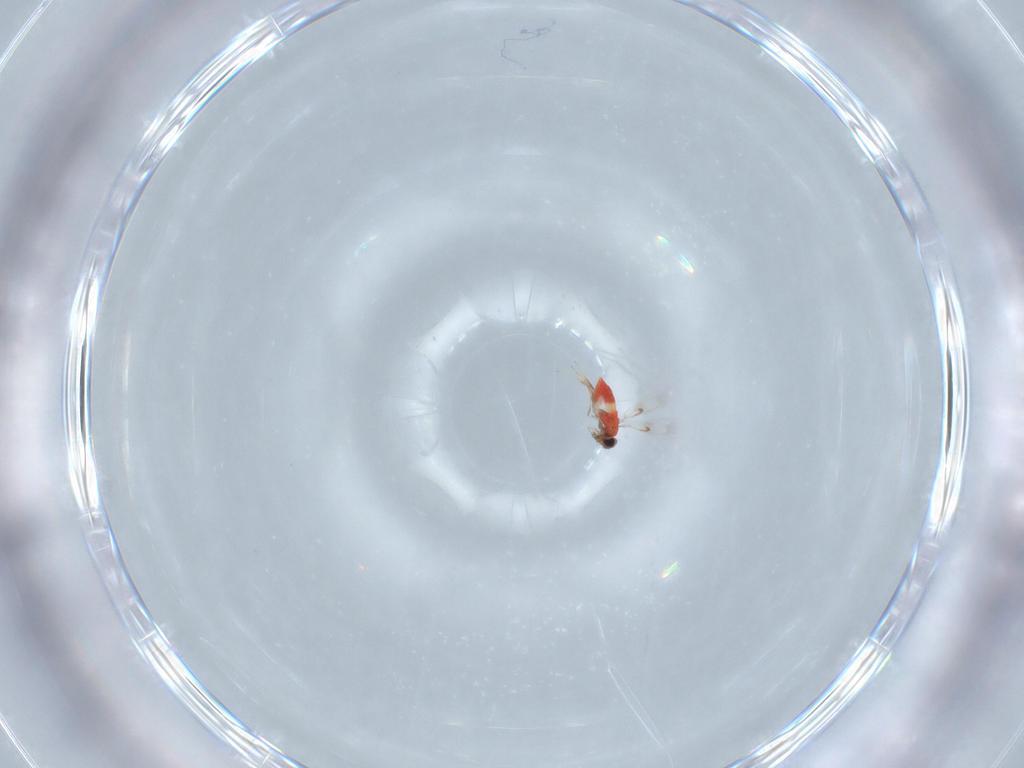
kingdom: Animalia
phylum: Arthropoda
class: Insecta
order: Hymenoptera
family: Trichogrammatidae
